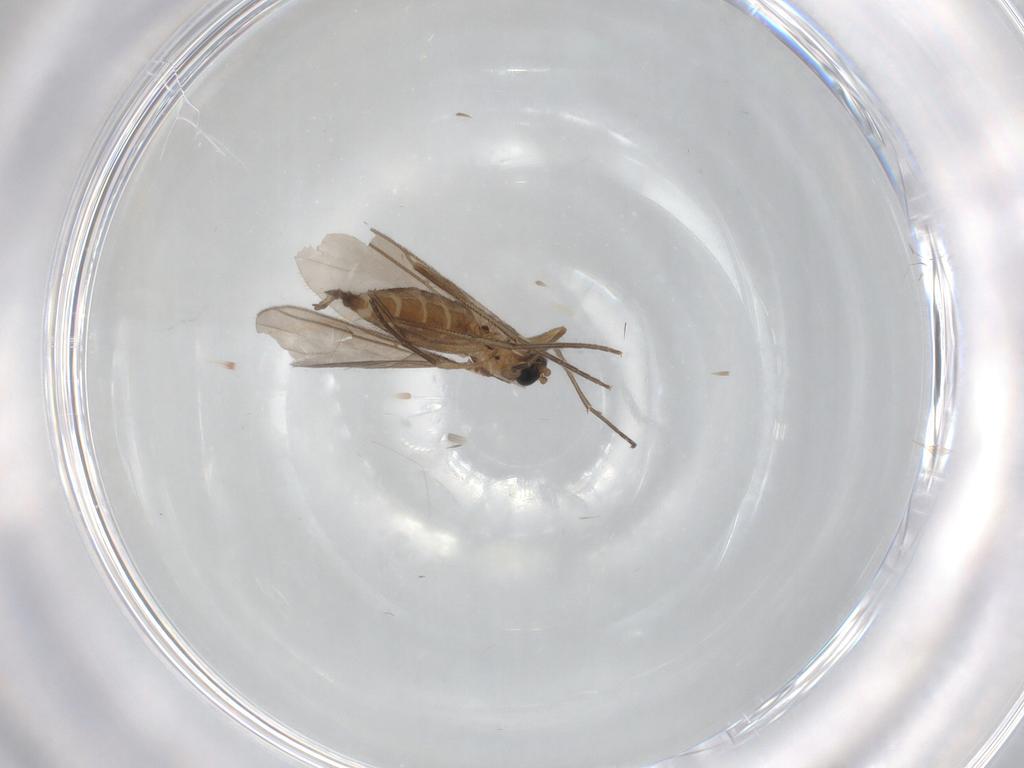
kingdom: Animalia
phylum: Arthropoda
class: Insecta
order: Diptera
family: Sciaridae
